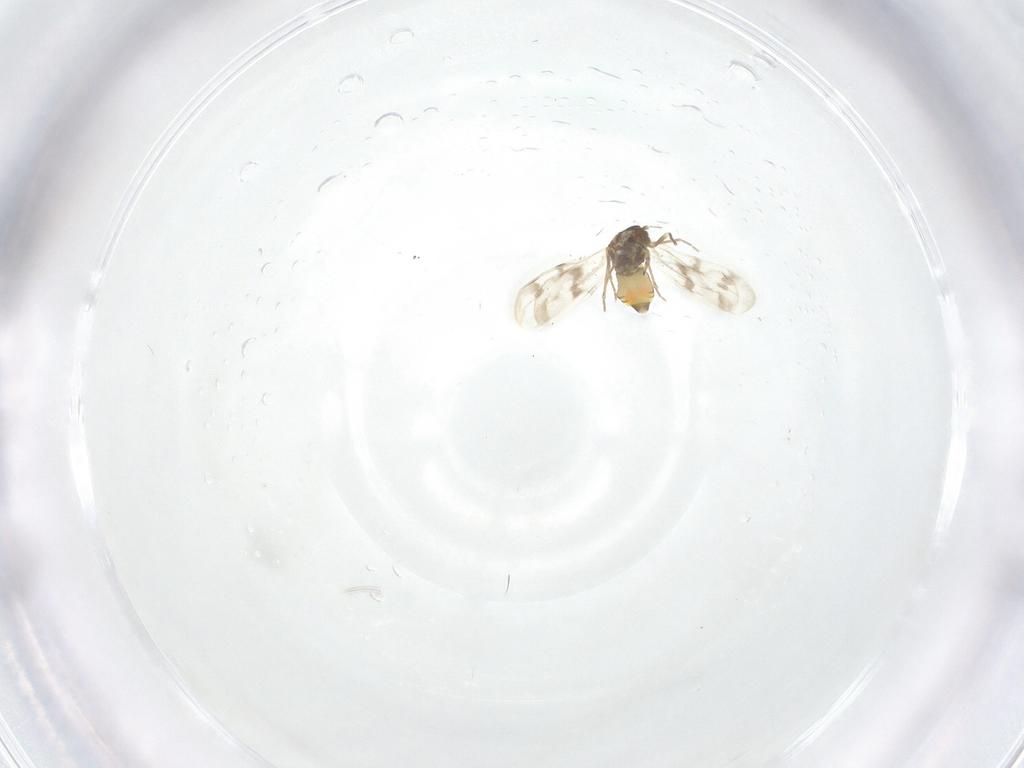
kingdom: Animalia
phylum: Arthropoda
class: Insecta
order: Hemiptera
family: Aleyrodidae
